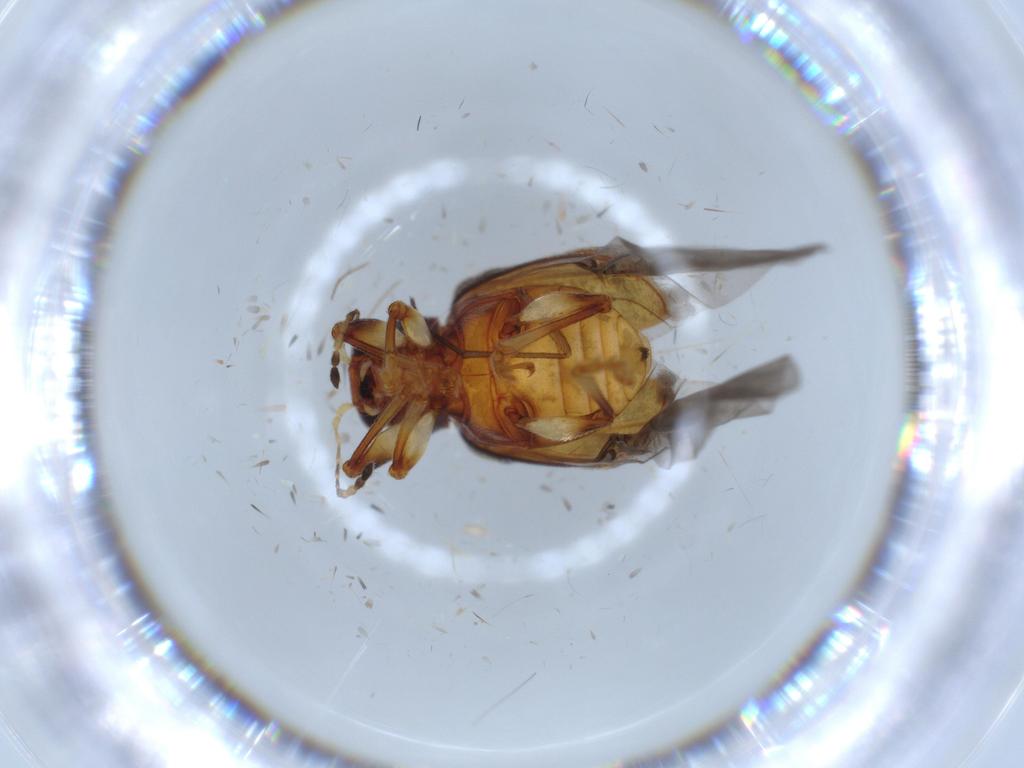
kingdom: Animalia
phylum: Arthropoda
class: Insecta
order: Coleoptera
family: Chrysomelidae
